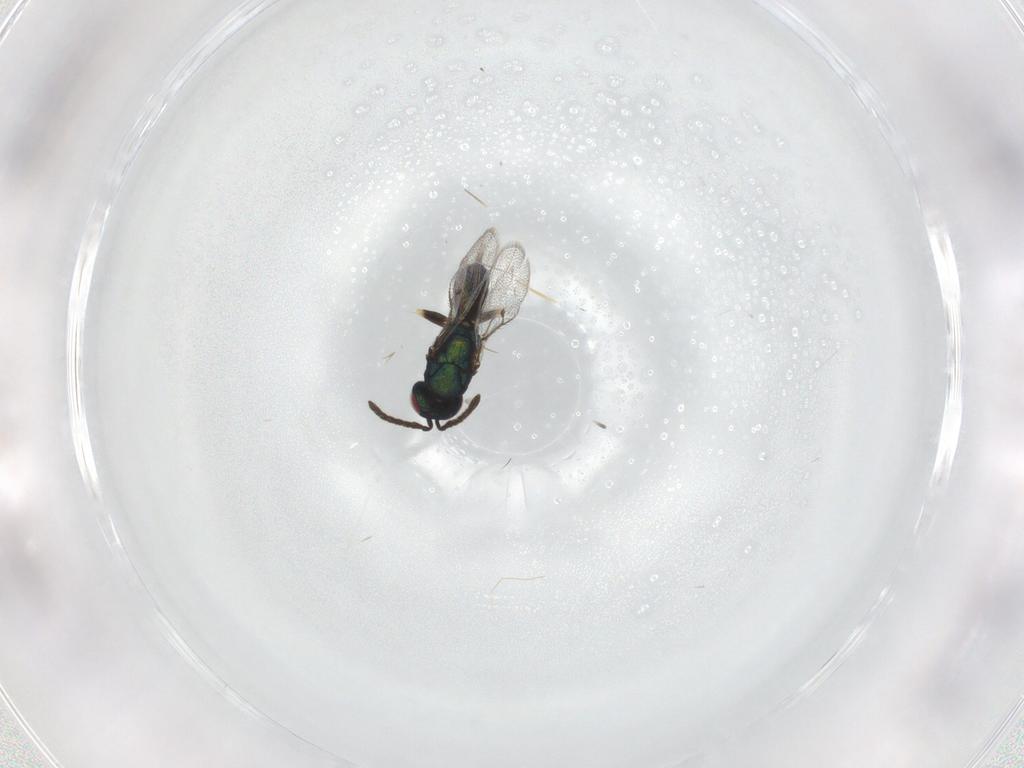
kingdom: Animalia
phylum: Arthropoda
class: Insecta
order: Hymenoptera
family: Pteromalidae
